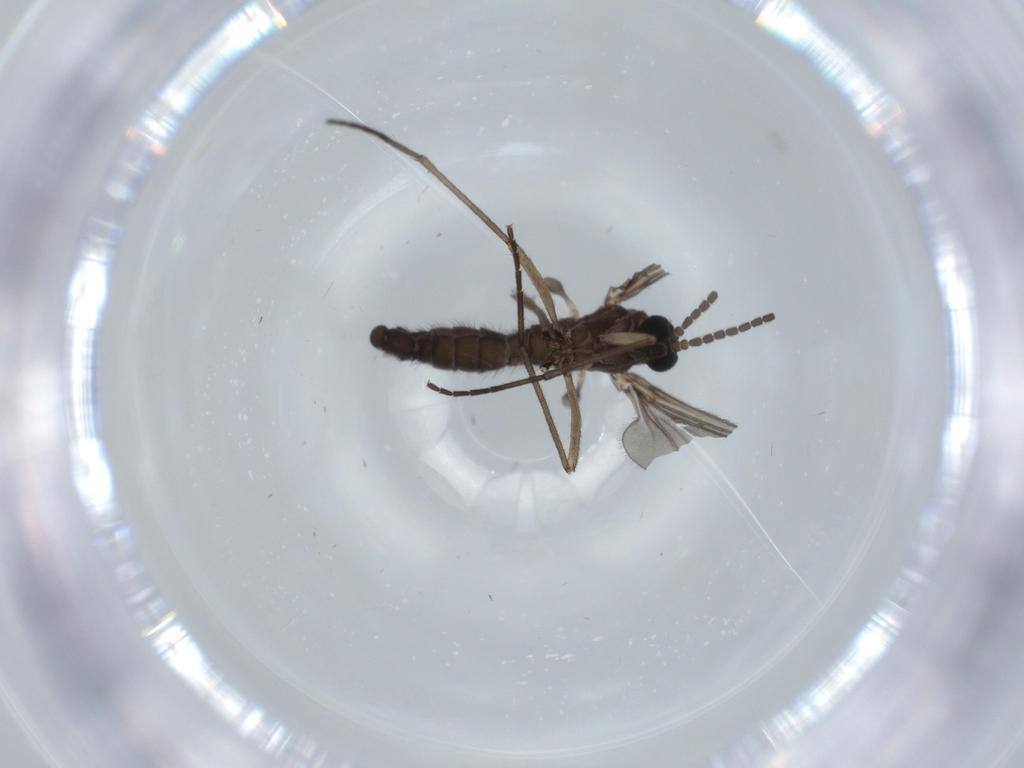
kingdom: Animalia
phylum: Arthropoda
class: Insecta
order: Diptera
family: Sciaridae
